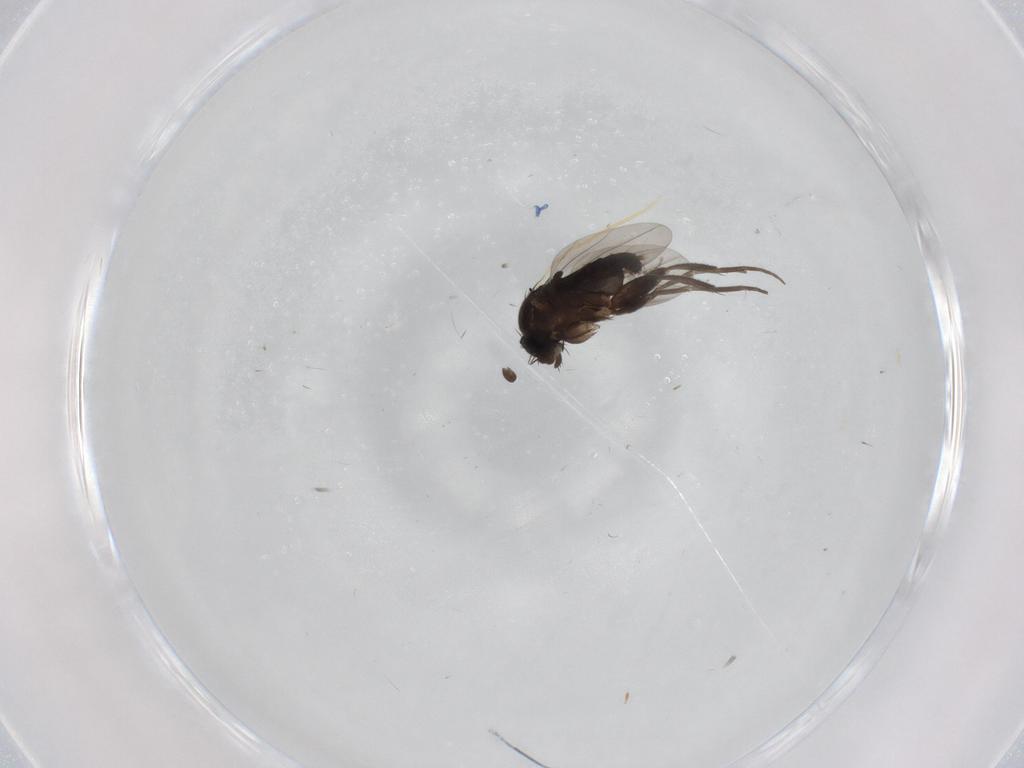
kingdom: Animalia
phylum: Arthropoda
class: Insecta
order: Diptera
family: Phoridae
